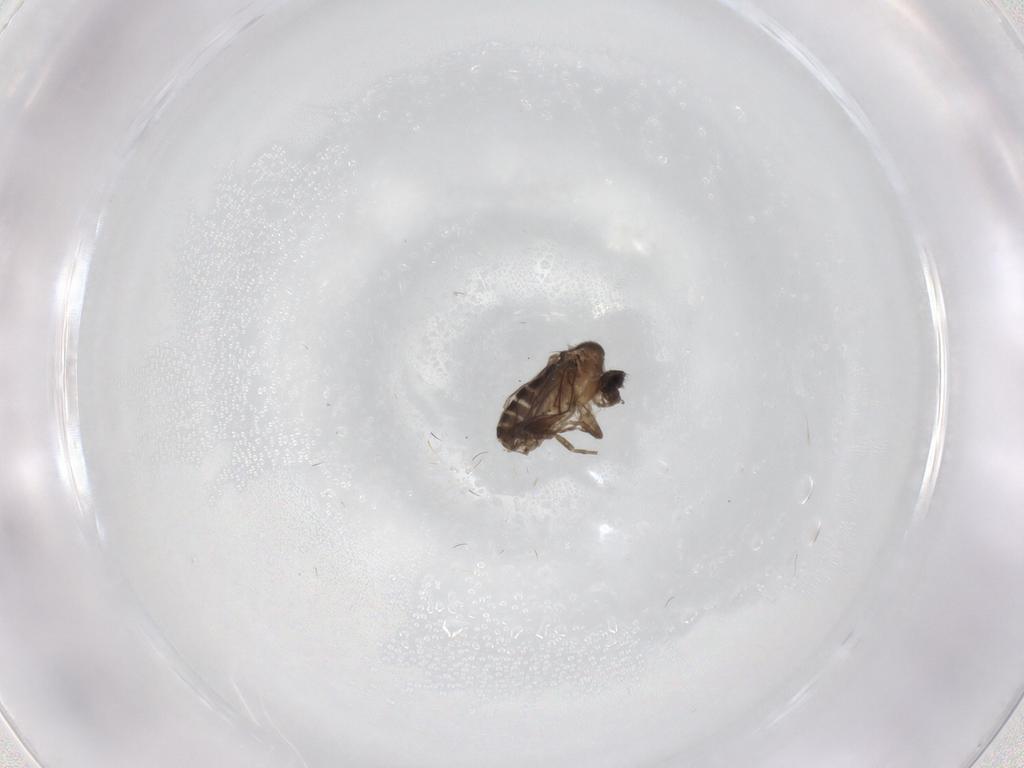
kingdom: Animalia
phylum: Arthropoda
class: Insecta
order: Diptera
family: Phoridae
